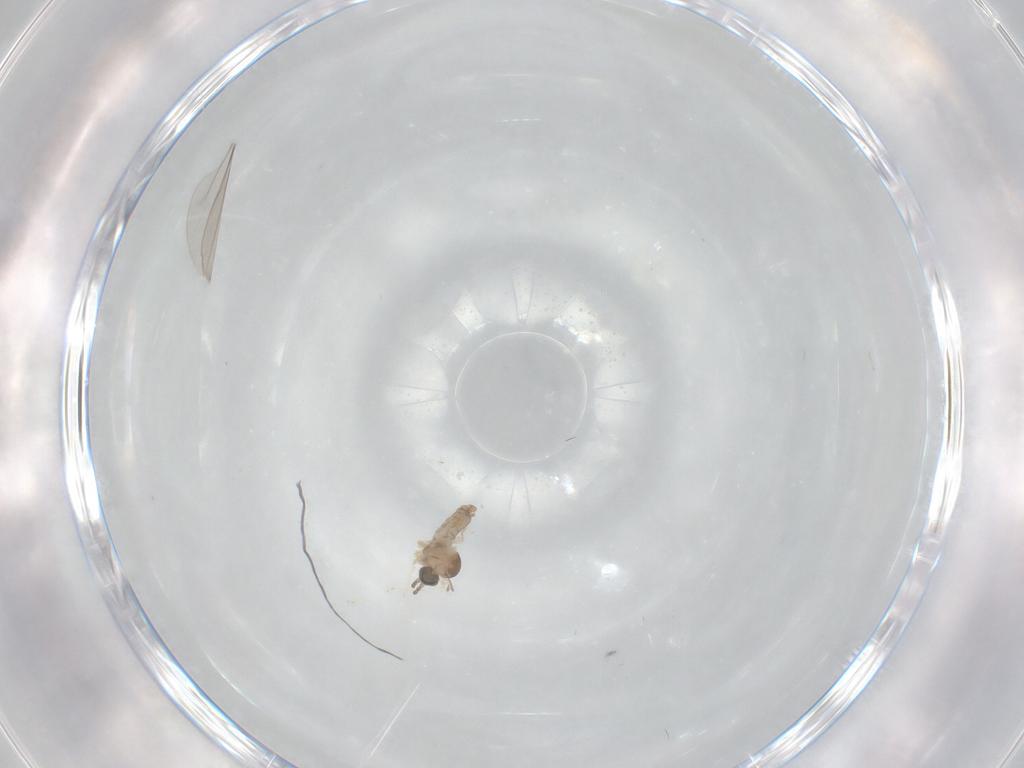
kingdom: Animalia
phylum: Arthropoda
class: Insecta
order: Diptera
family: Cecidomyiidae
